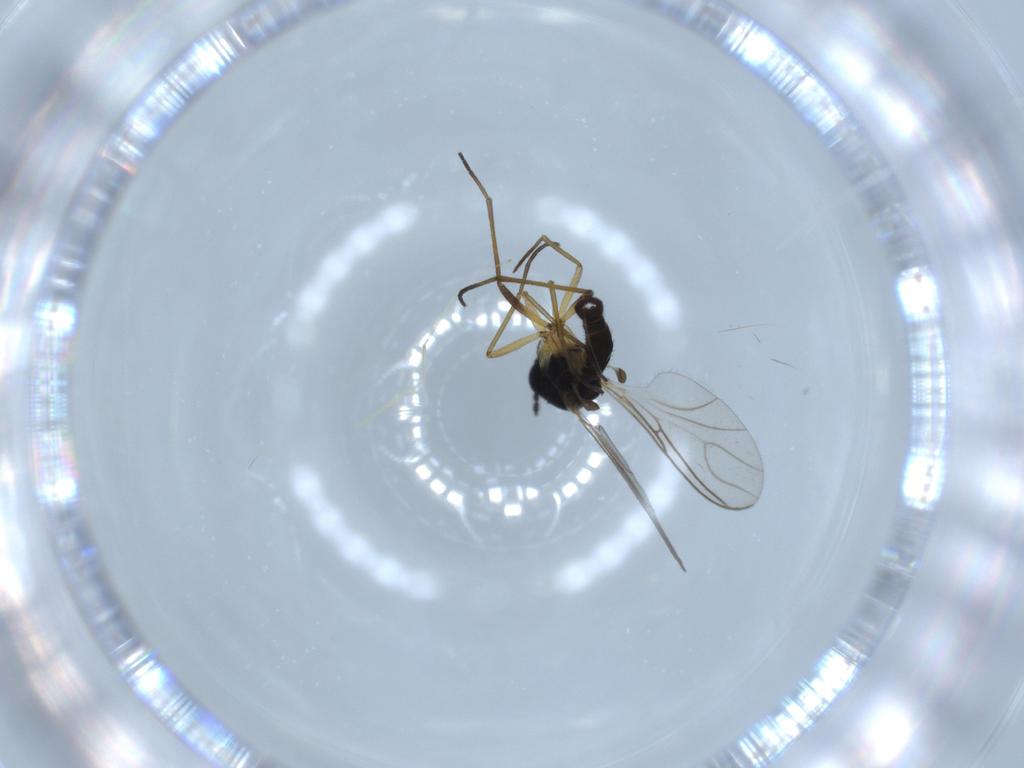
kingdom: Animalia
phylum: Arthropoda
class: Insecta
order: Diptera
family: Sciaridae
